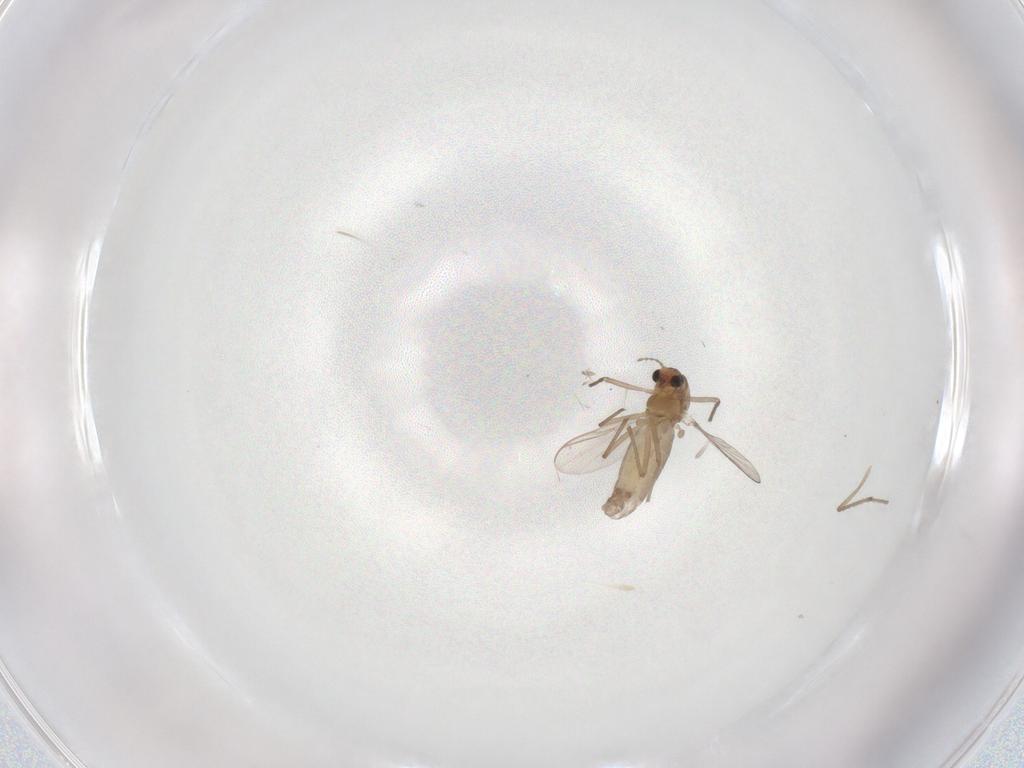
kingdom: Animalia
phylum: Arthropoda
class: Insecta
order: Diptera
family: Chironomidae
